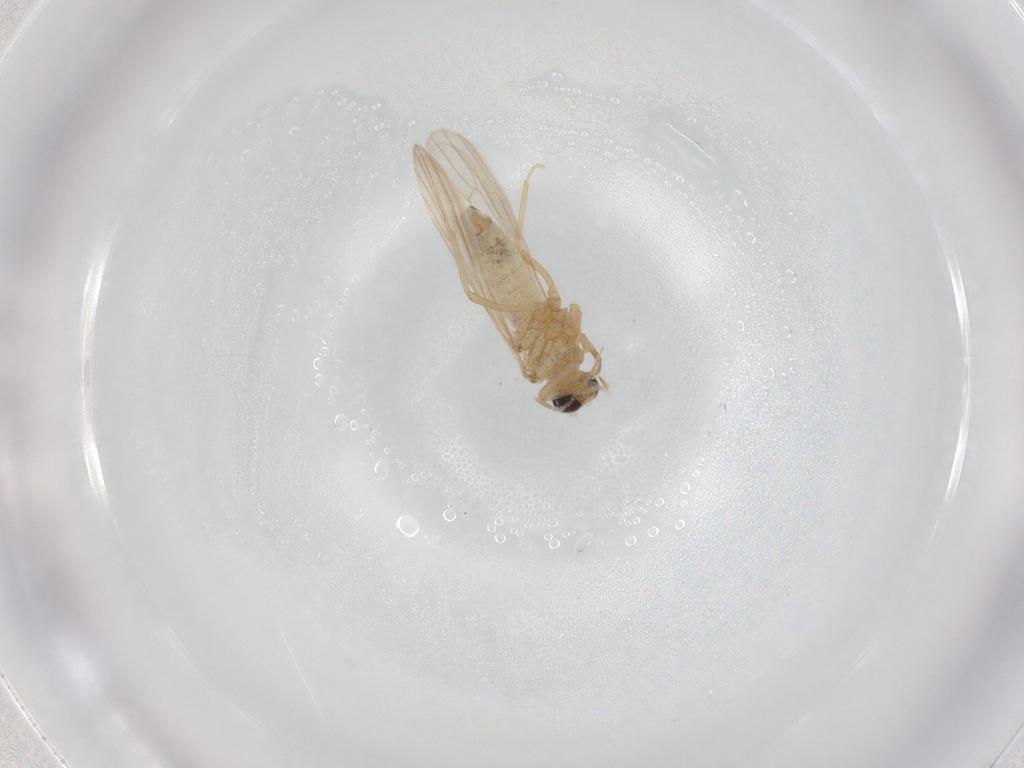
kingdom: Animalia
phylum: Arthropoda
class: Insecta
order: Neuroptera
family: Coniopterygidae
